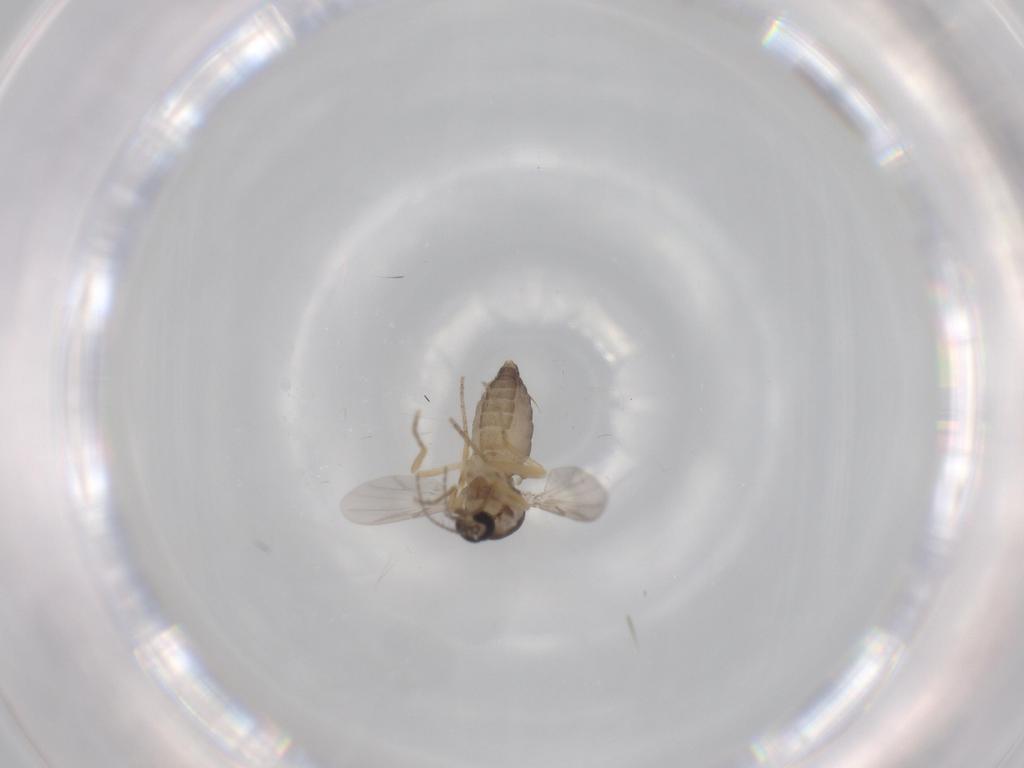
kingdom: Animalia
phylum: Arthropoda
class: Insecta
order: Diptera
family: Ceratopogonidae
